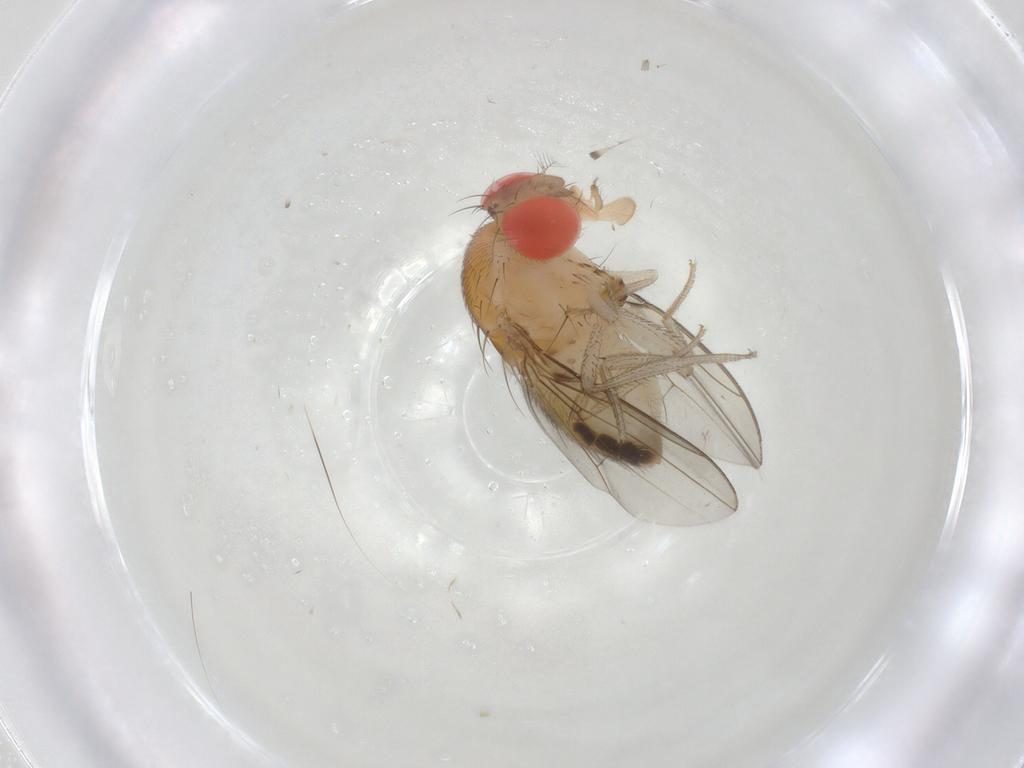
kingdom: Animalia
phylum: Arthropoda
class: Insecta
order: Diptera
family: Drosophilidae
